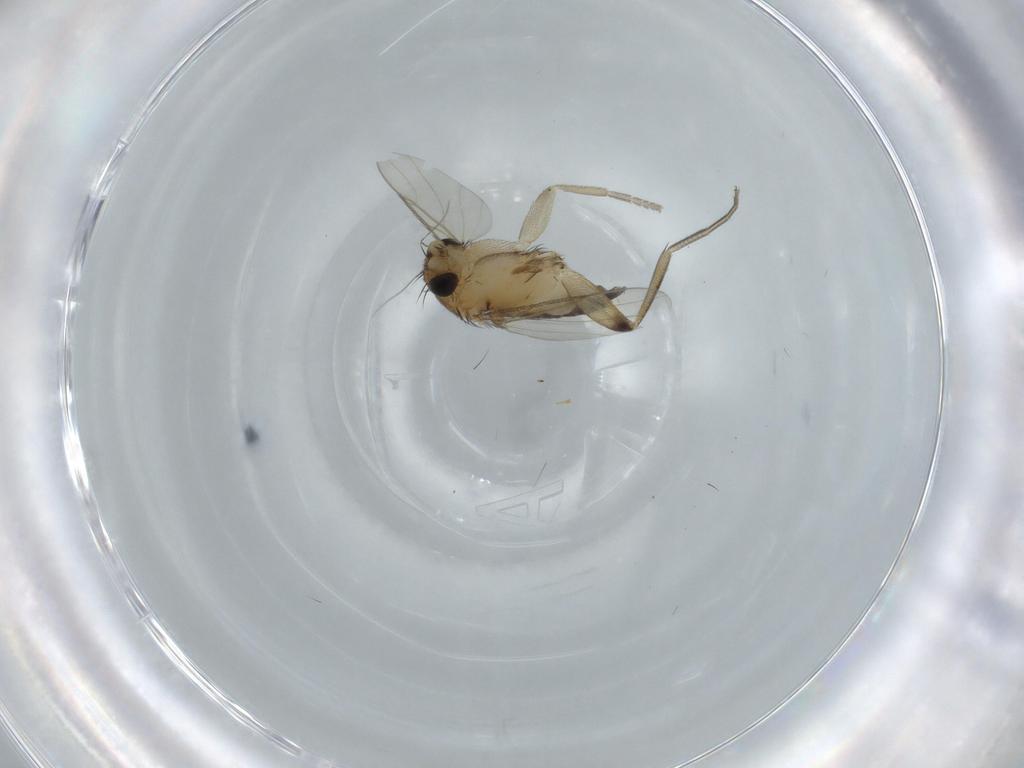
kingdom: Animalia
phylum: Arthropoda
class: Insecta
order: Diptera
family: Phoridae
